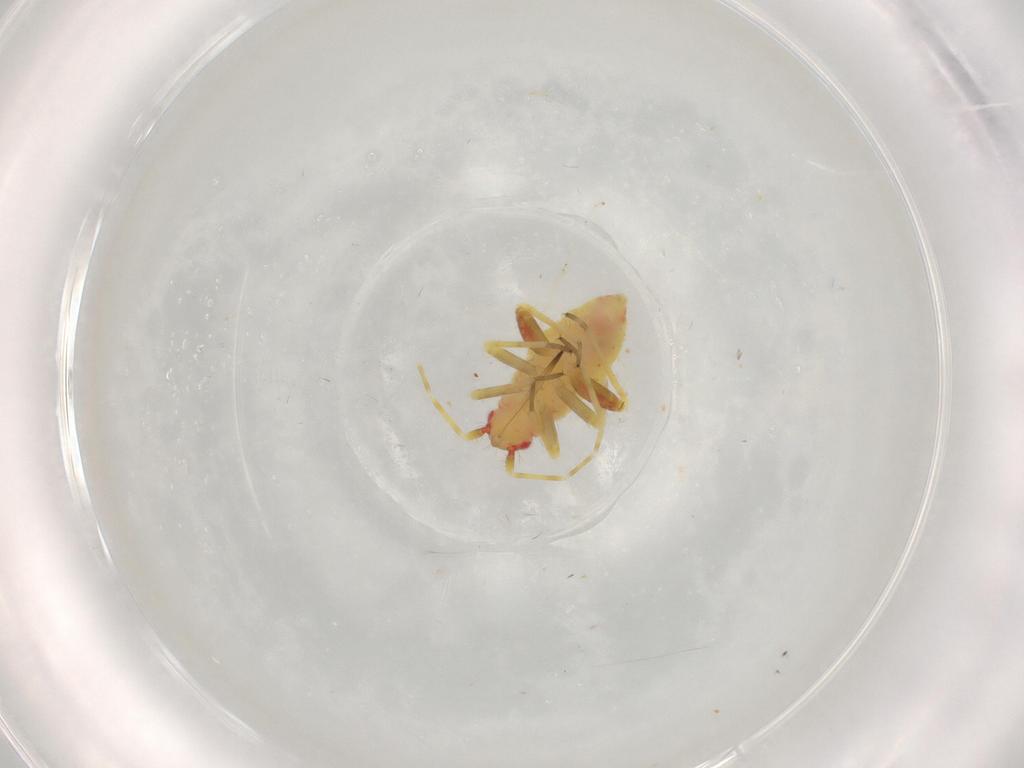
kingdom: Animalia
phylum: Arthropoda
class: Insecta
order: Hemiptera
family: Miridae
